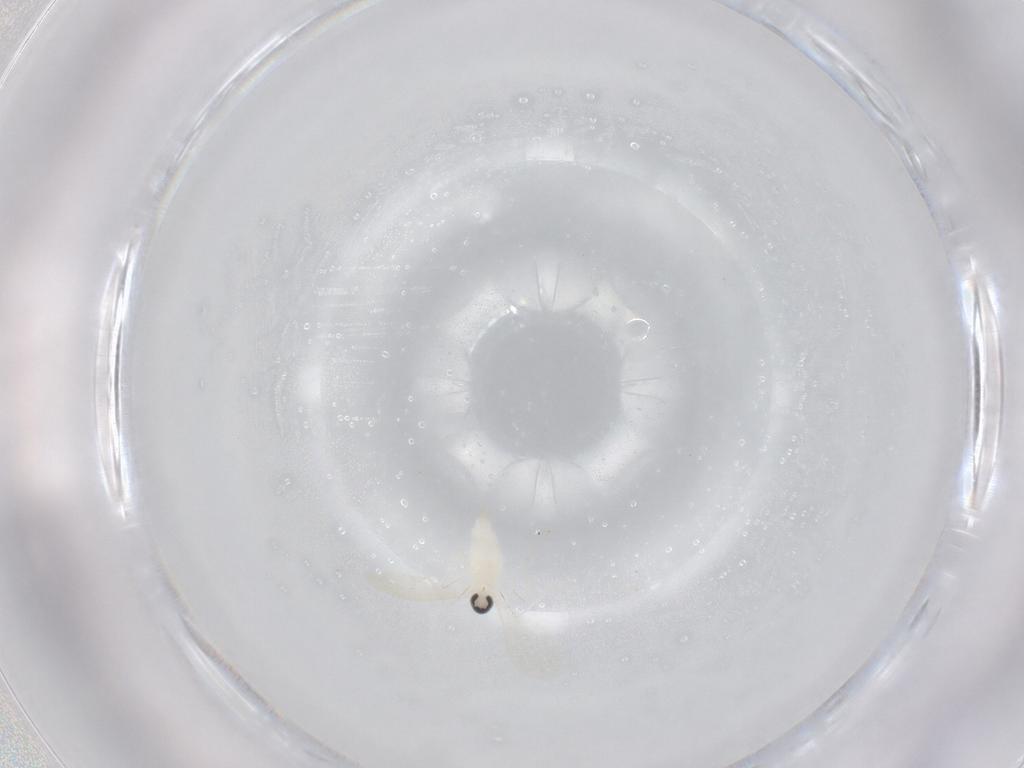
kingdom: Animalia
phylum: Arthropoda
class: Insecta
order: Diptera
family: Cecidomyiidae
